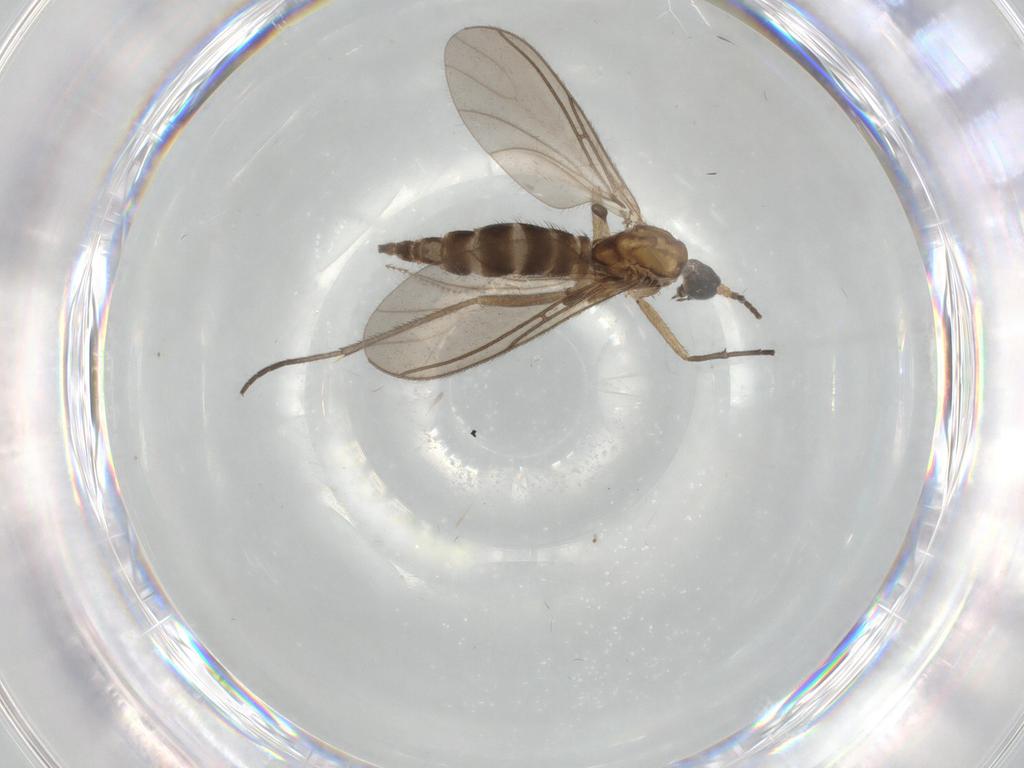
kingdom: Animalia
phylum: Arthropoda
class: Insecta
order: Diptera
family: Sciaridae
